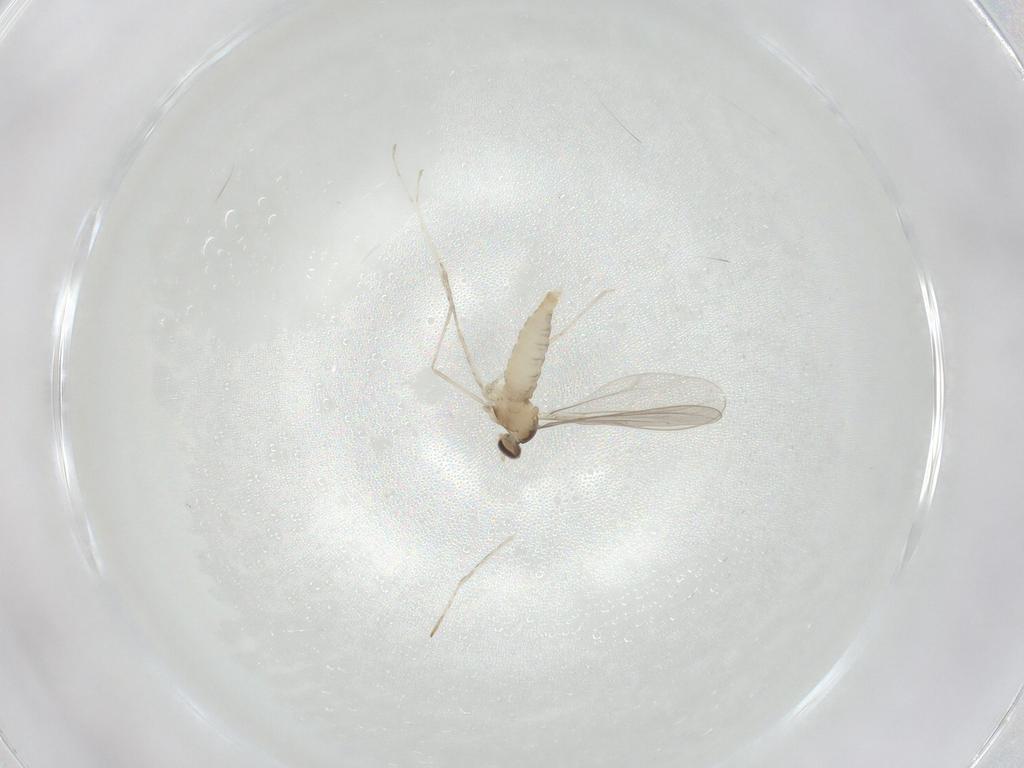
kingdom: Animalia
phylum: Arthropoda
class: Insecta
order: Diptera
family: Cecidomyiidae
